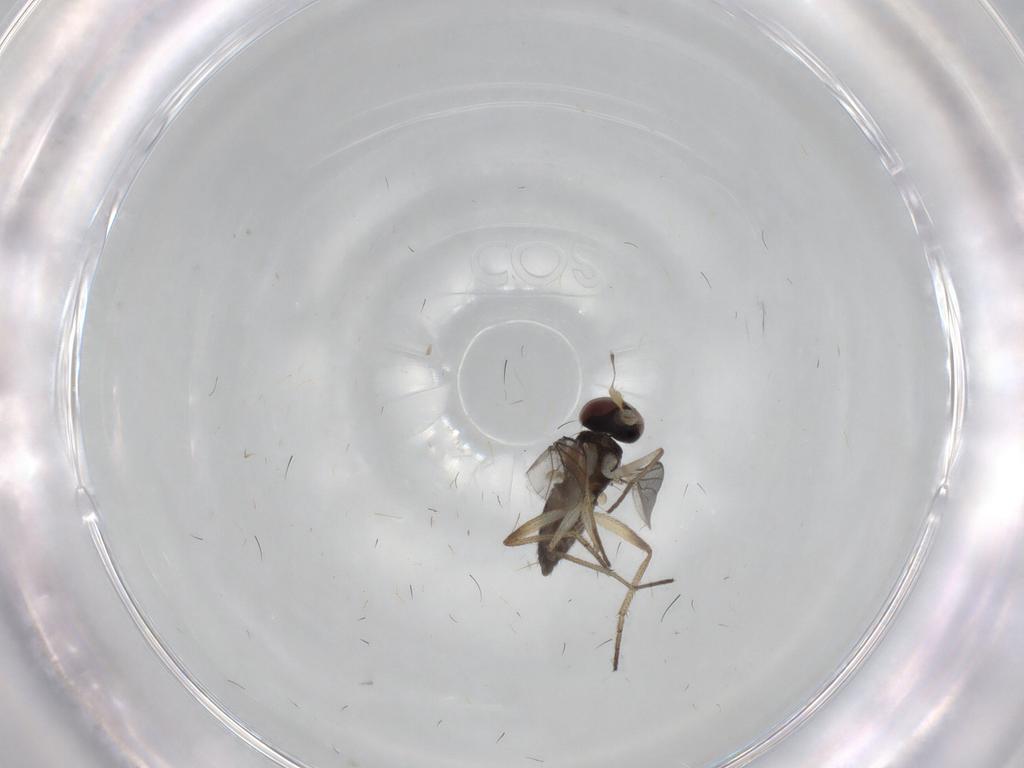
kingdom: Animalia
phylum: Arthropoda
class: Insecta
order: Diptera
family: Dolichopodidae
